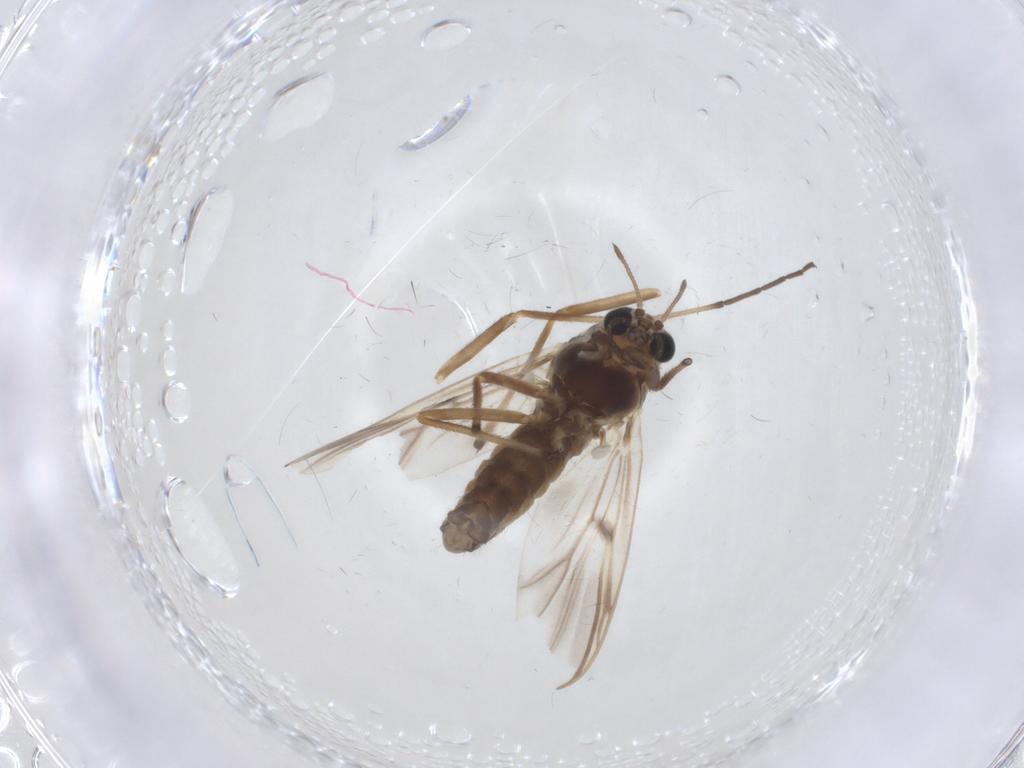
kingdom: Animalia
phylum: Arthropoda
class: Insecta
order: Diptera
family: Chironomidae
